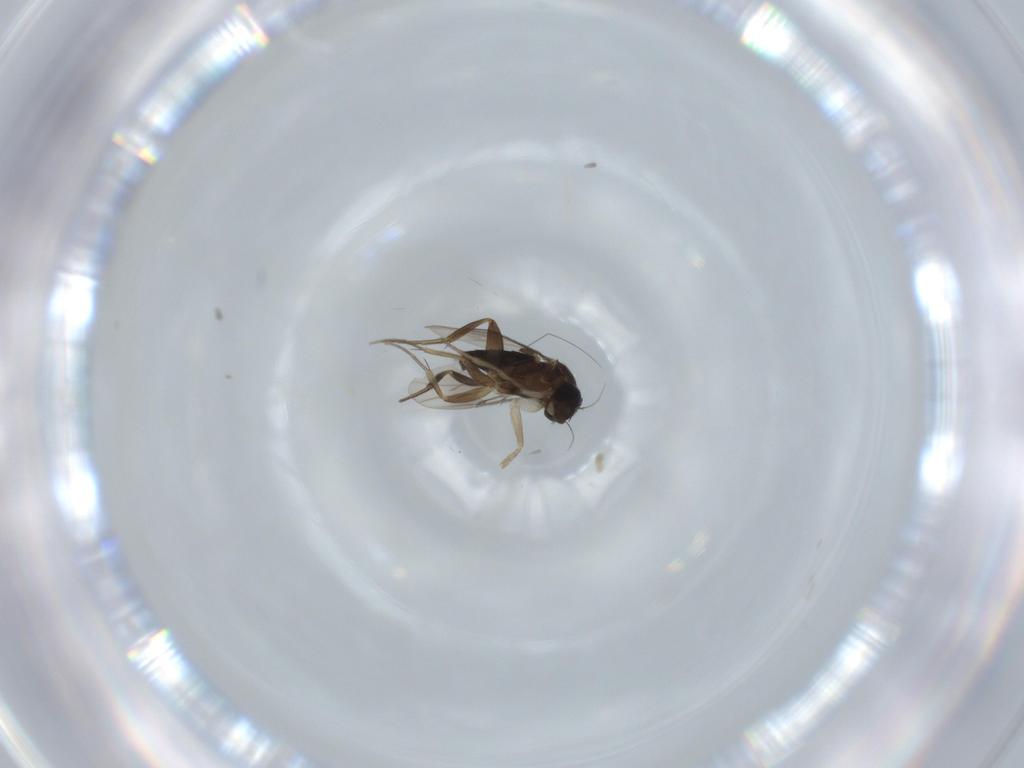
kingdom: Animalia
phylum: Arthropoda
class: Insecta
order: Diptera
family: Phoridae
